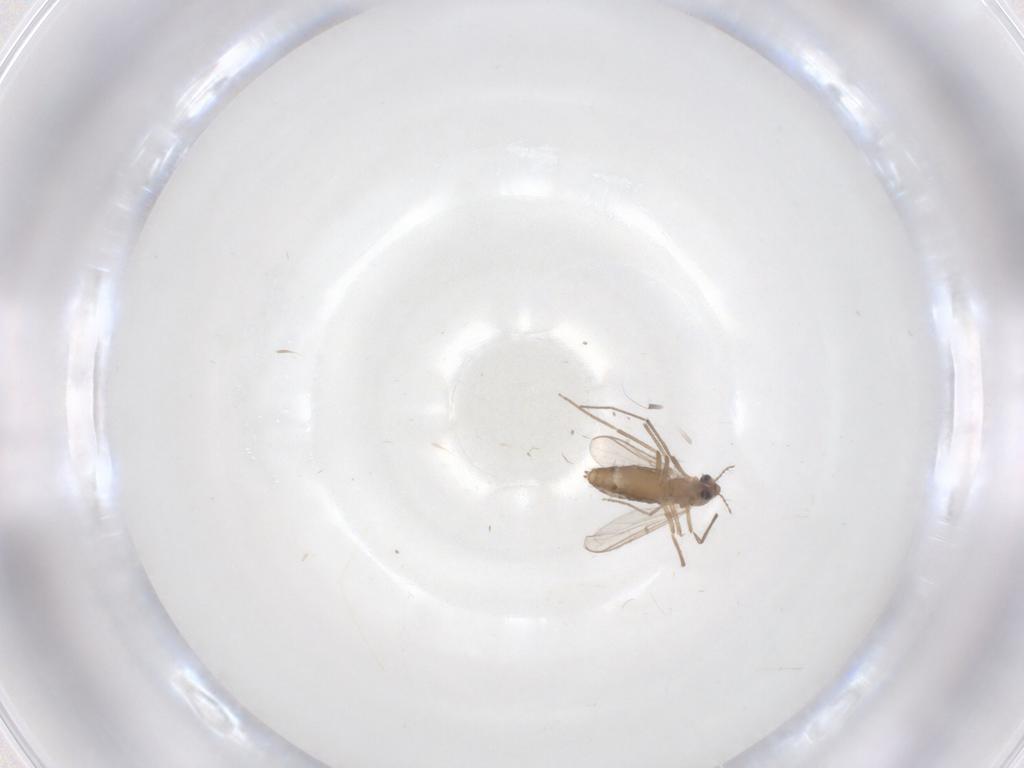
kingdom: Animalia
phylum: Arthropoda
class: Insecta
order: Diptera
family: Chironomidae
